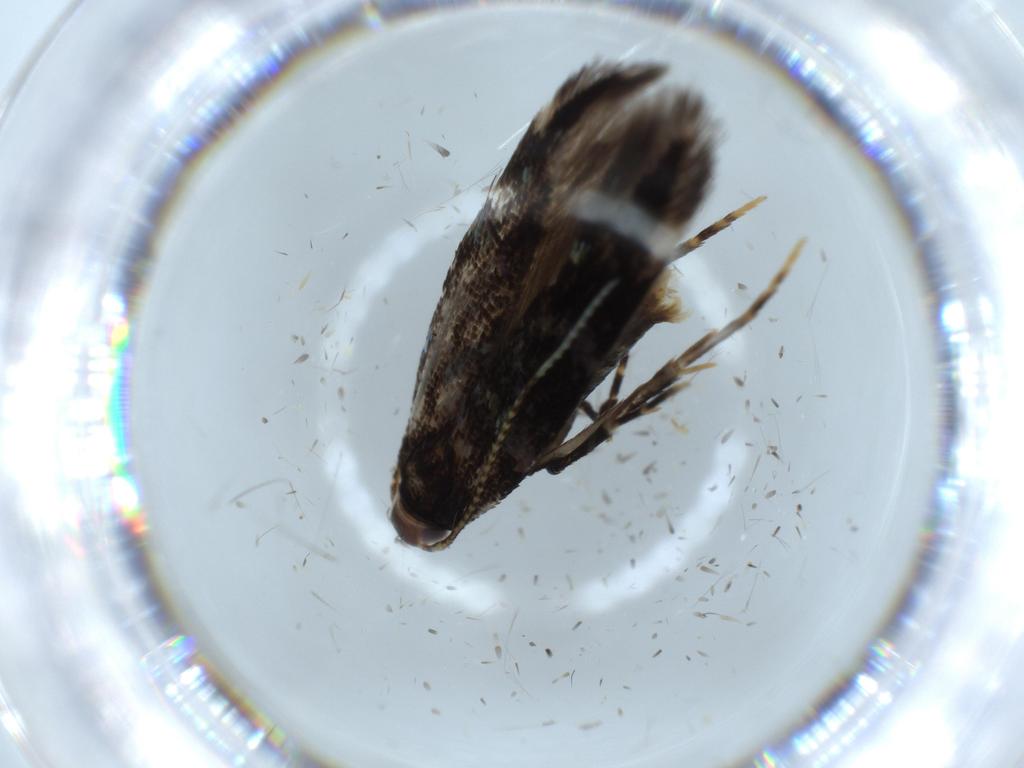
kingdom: Animalia
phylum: Arthropoda
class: Insecta
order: Lepidoptera
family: Cosmopterigidae
